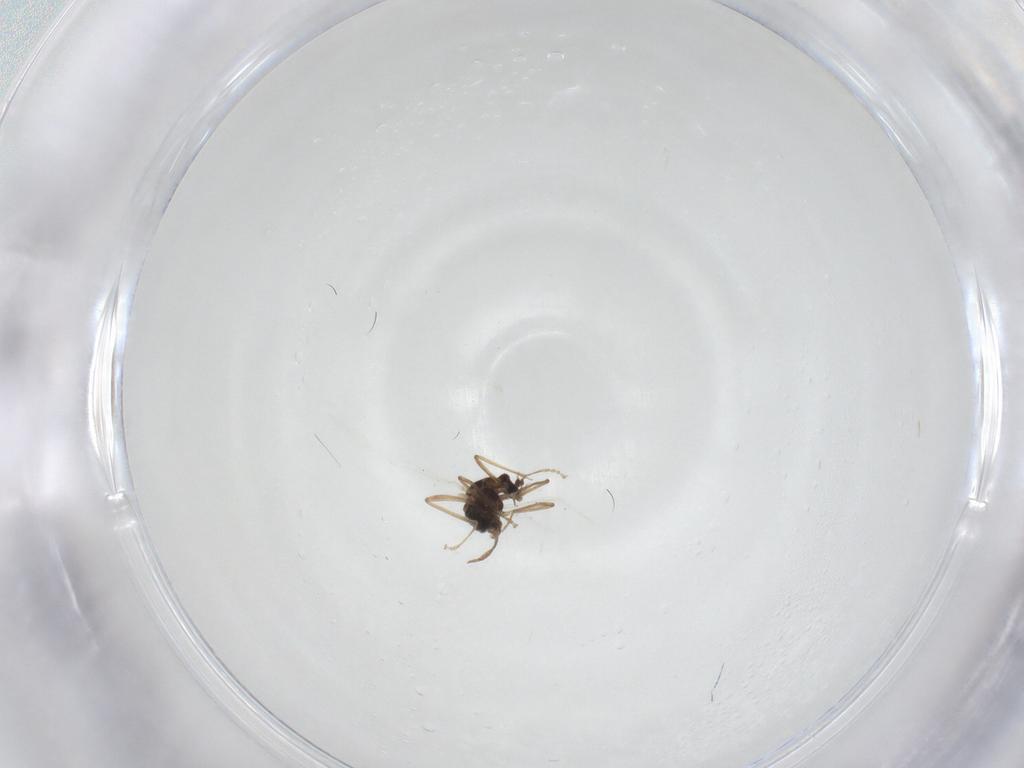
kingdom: Animalia
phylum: Arthropoda
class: Insecta
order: Diptera
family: Cecidomyiidae
